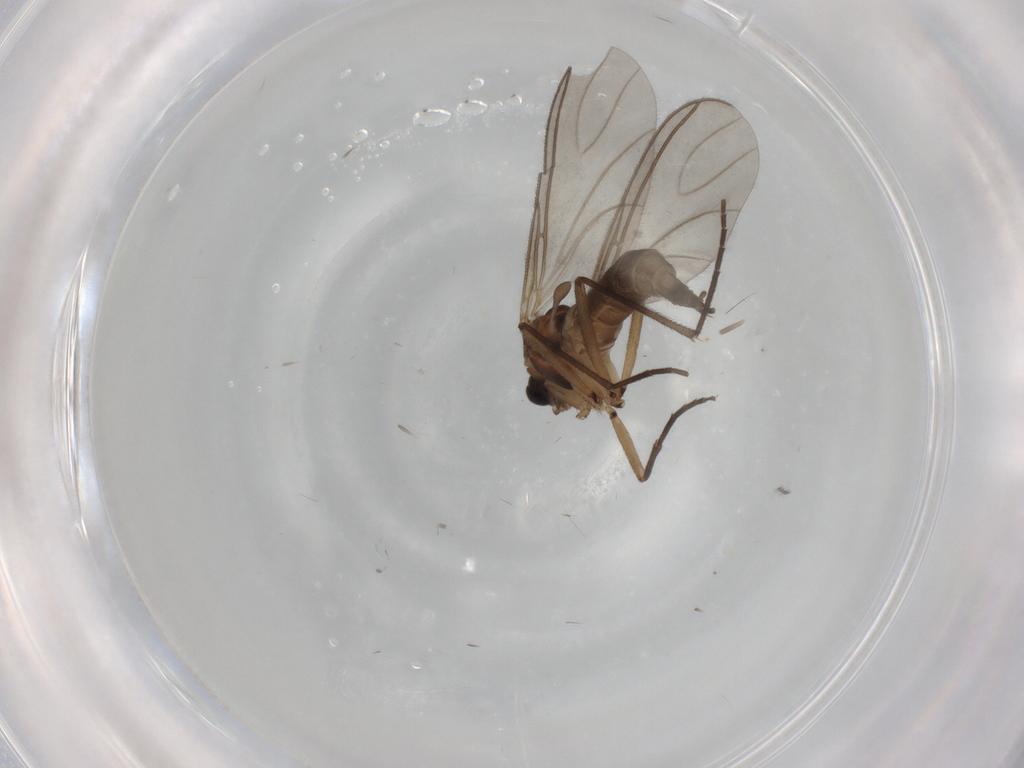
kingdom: Animalia
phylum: Arthropoda
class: Insecta
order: Diptera
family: Sciaridae
